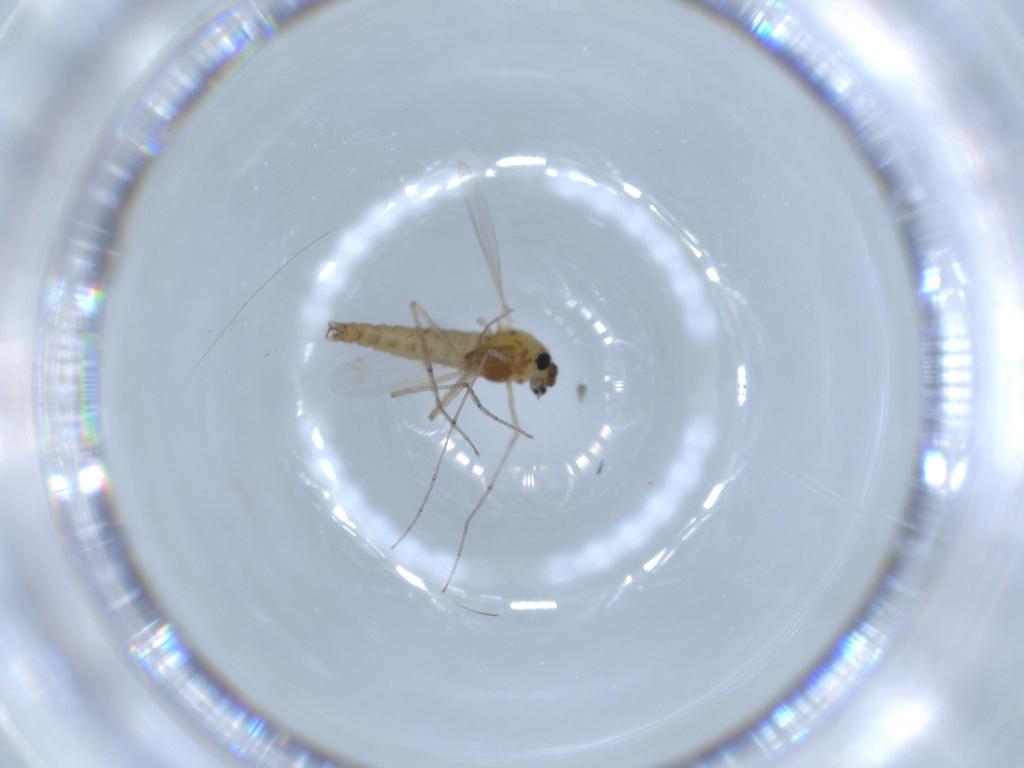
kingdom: Animalia
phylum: Arthropoda
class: Insecta
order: Diptera
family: Chironomidae
